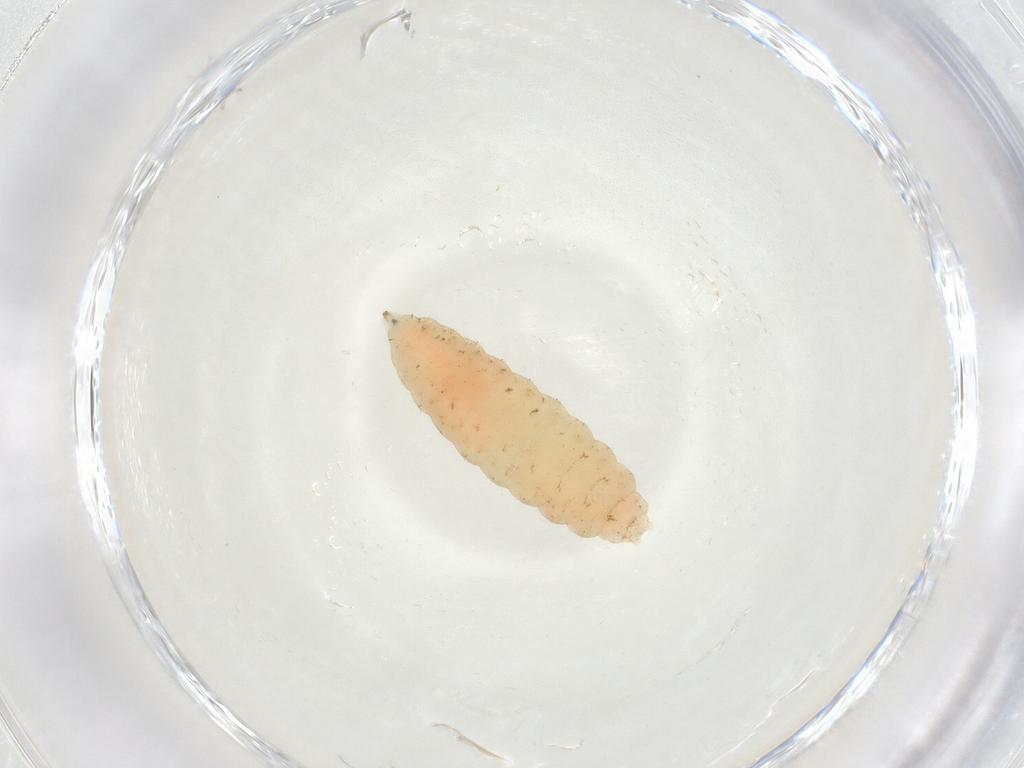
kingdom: Animalia
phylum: Arthropoda
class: Insecta
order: Diptera
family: Cecidomyiidae
